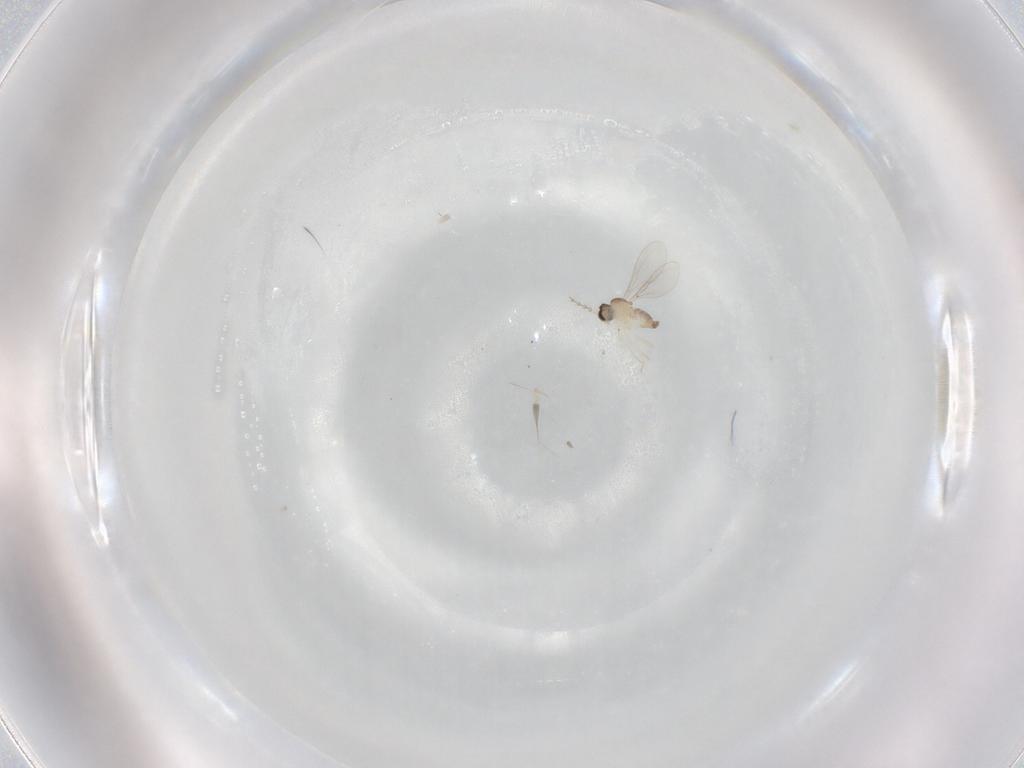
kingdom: Animalia
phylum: Arthropoda
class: Insecta
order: Diptera
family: Cecidomyiidae
